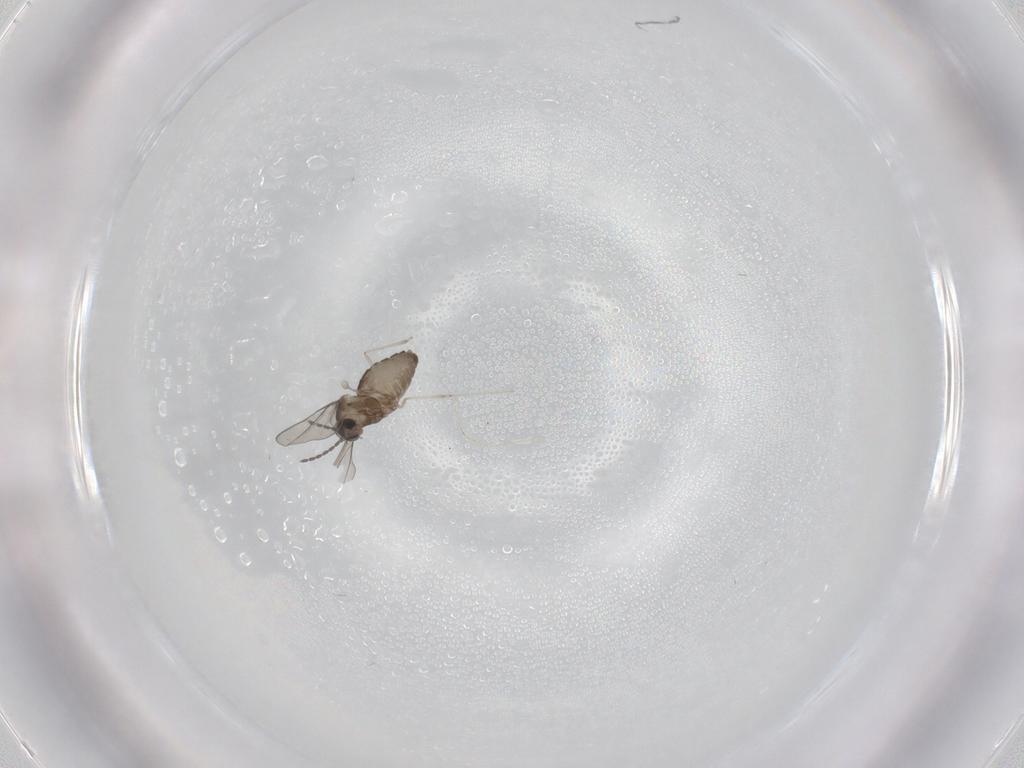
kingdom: Animalia
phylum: Arthropoda
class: Insecta
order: Diptera
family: Cecidomyiidae
